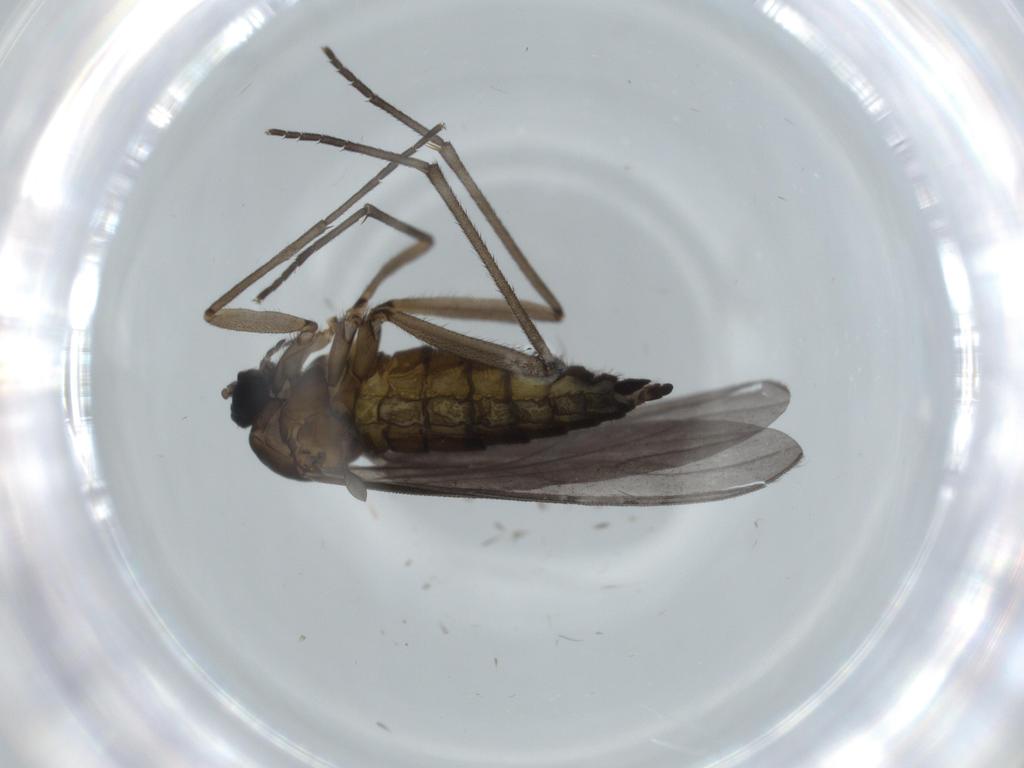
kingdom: Animalia
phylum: Arthropoda
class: Insecta
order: Diptera
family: Sciaridae
